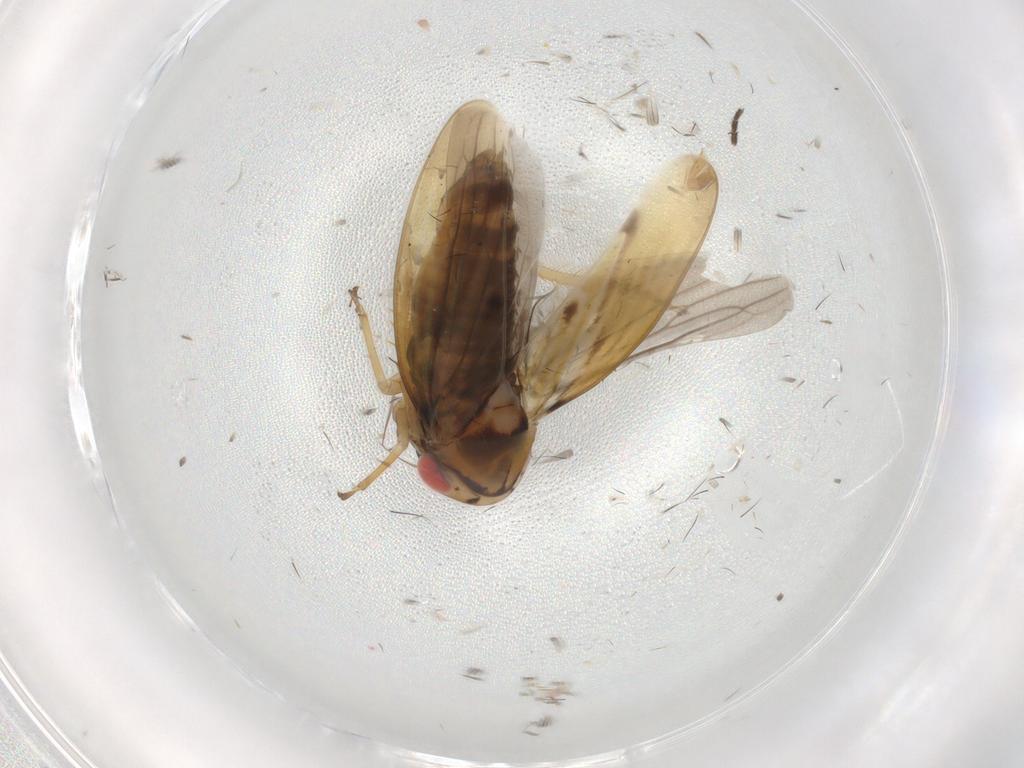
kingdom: Animalia
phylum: Arthropoda
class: Insecta
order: Hemiptera
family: Cicadellidae
